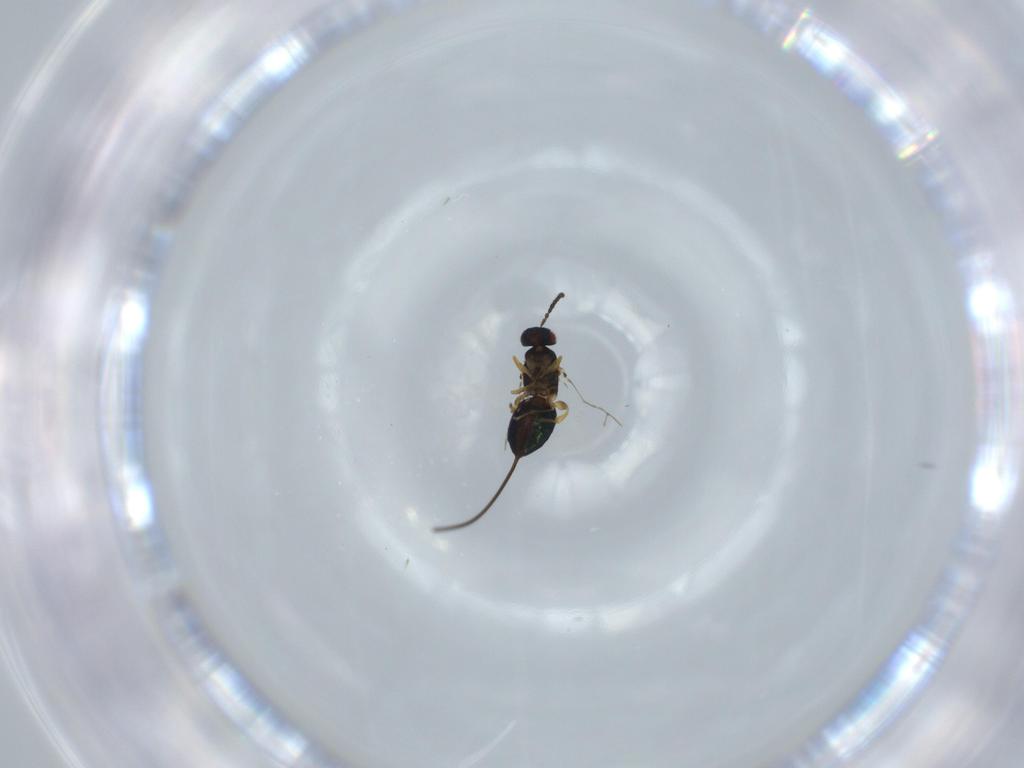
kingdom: Animalia
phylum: Arthropoda
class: Insecta
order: Hymenoptera
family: Agaonidae
